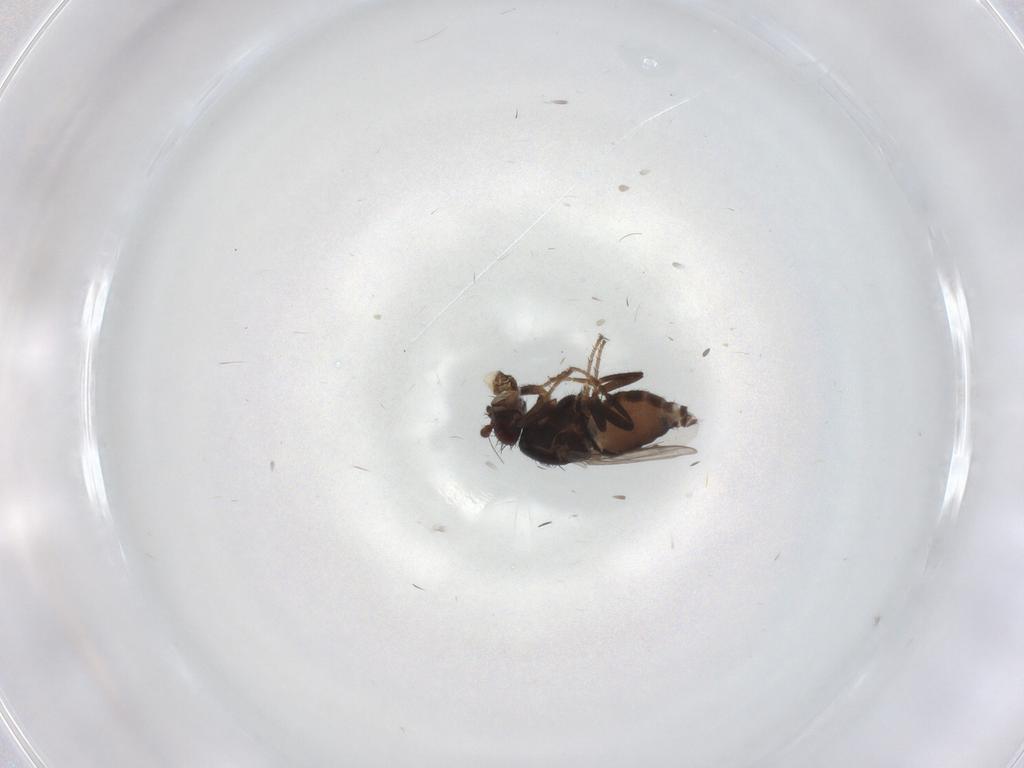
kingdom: Animalia
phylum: Arthropoda
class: Insecta
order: Diptera
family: Sphaeroceridae
